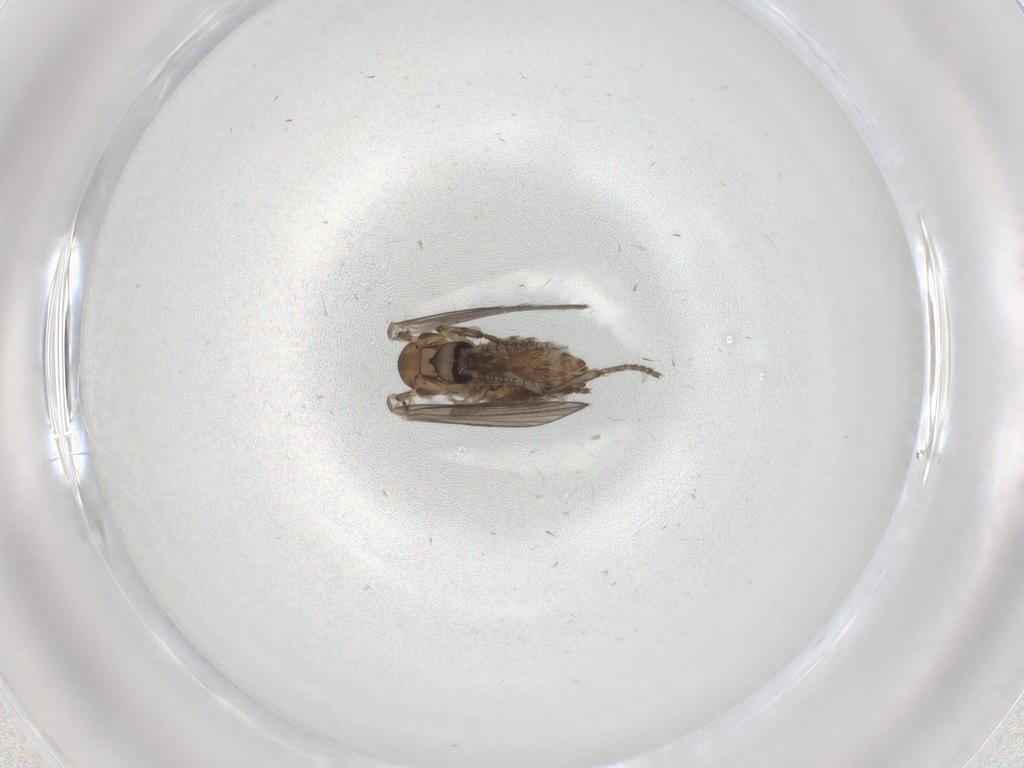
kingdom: Animalia
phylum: Arthropoda
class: Insecta
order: Diptera
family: Psychodidae
